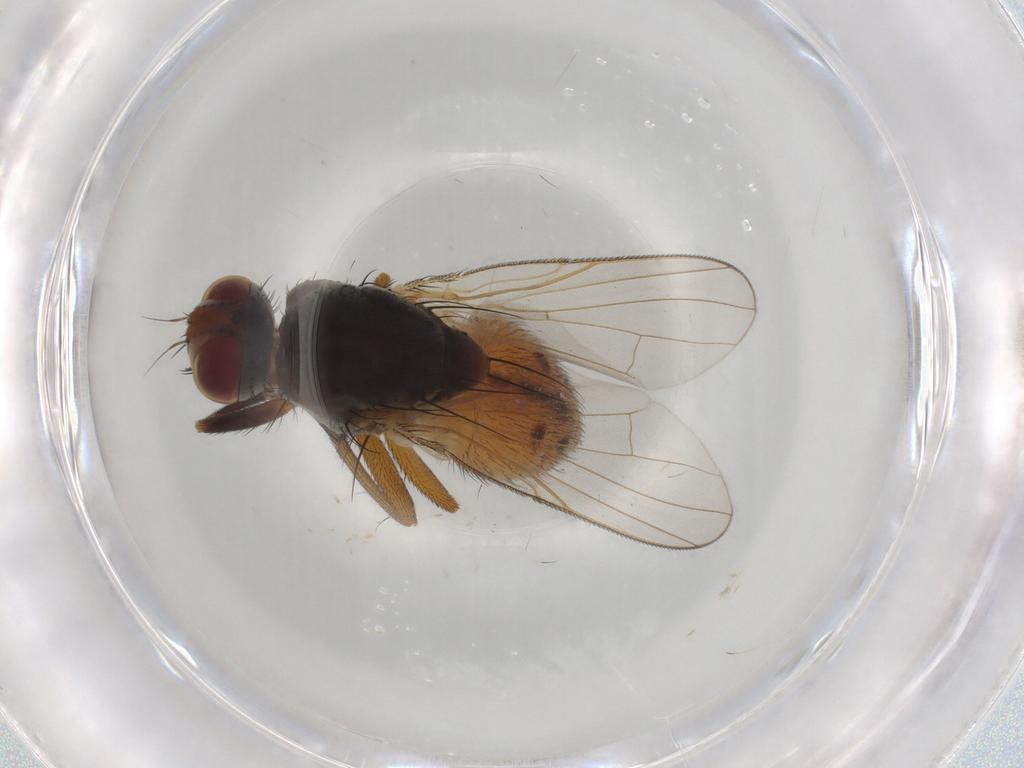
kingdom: Animalia
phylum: Arthropoda
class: Insecta
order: Diptera
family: Muscidae
